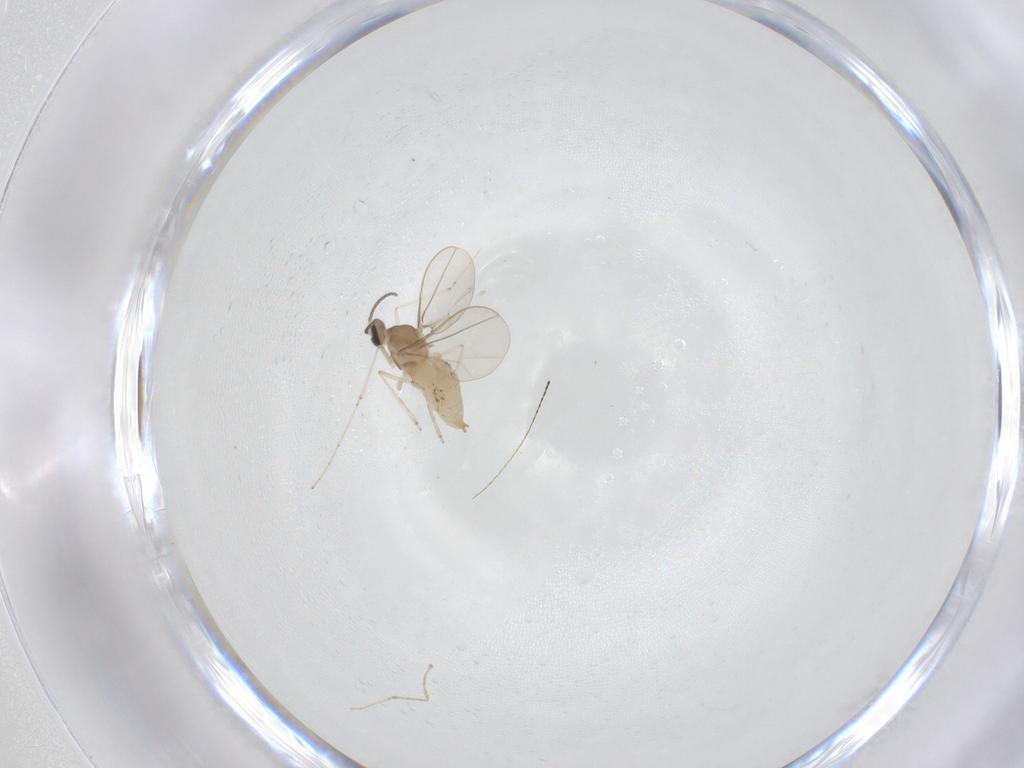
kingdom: Animalia
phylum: Arthropoda
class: Insecta
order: Diptera
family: Cecidomyiidae
